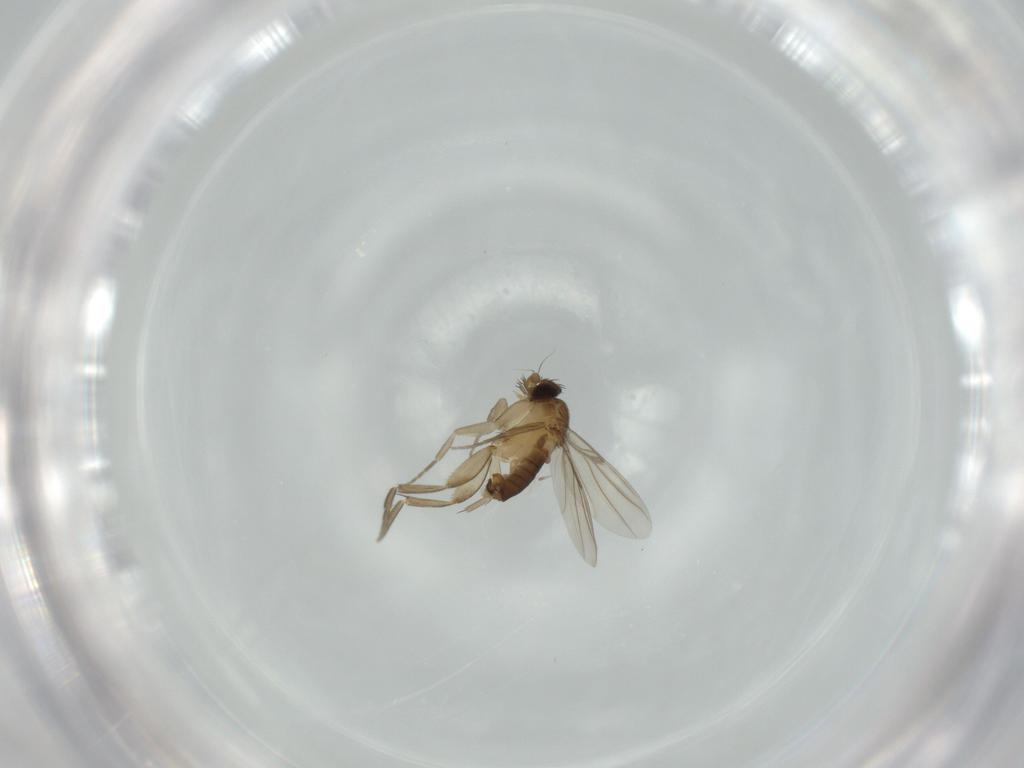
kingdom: Animalia
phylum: Arthropoda
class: Insecta
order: Diptera
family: Phoridae
